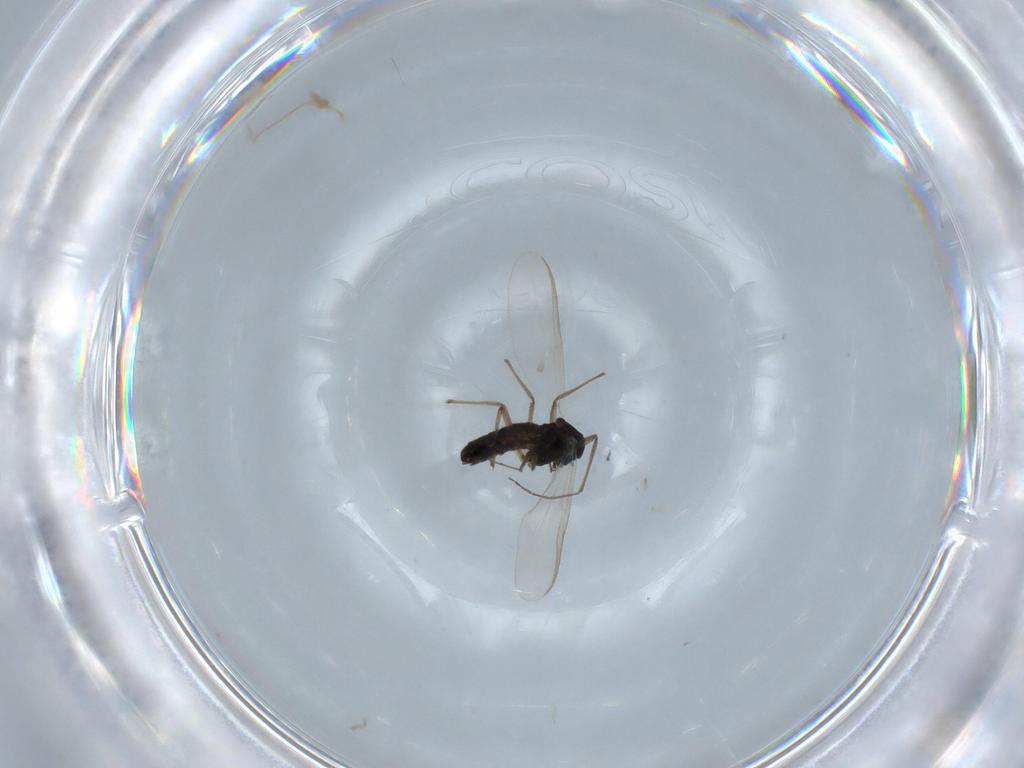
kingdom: Animalia
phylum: Arthropoda
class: Insecta
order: Diptera
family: Chironomidae
